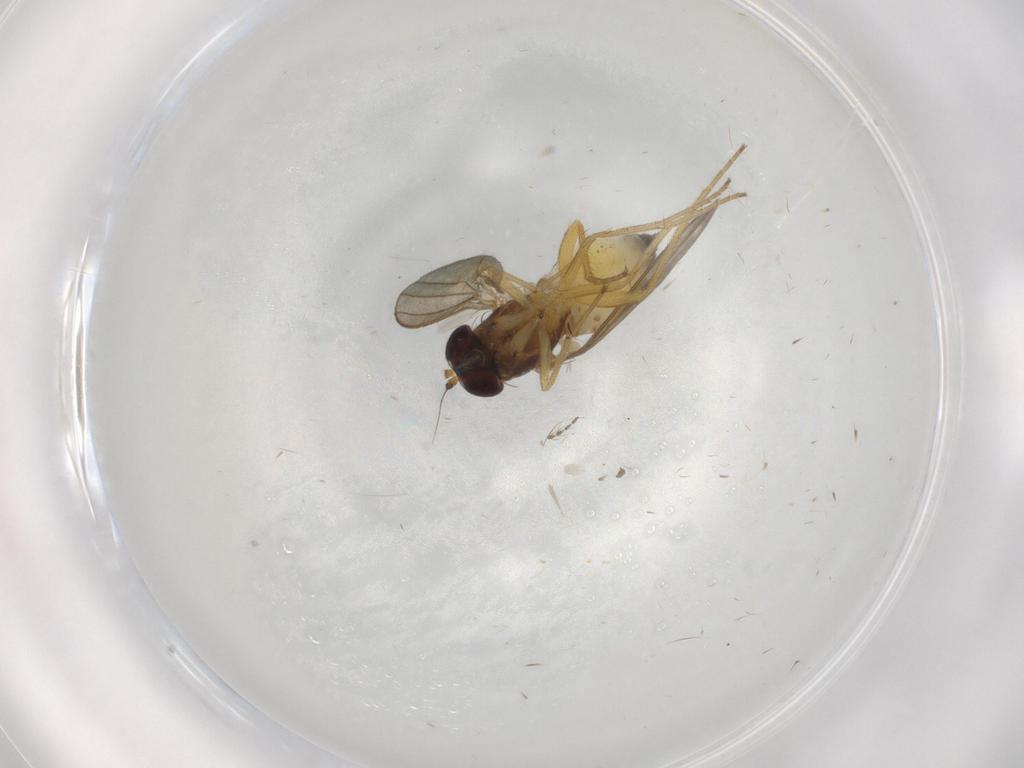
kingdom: Animalia
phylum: Arthropoda
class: Insecta
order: Diptera
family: Dolichopodidae
